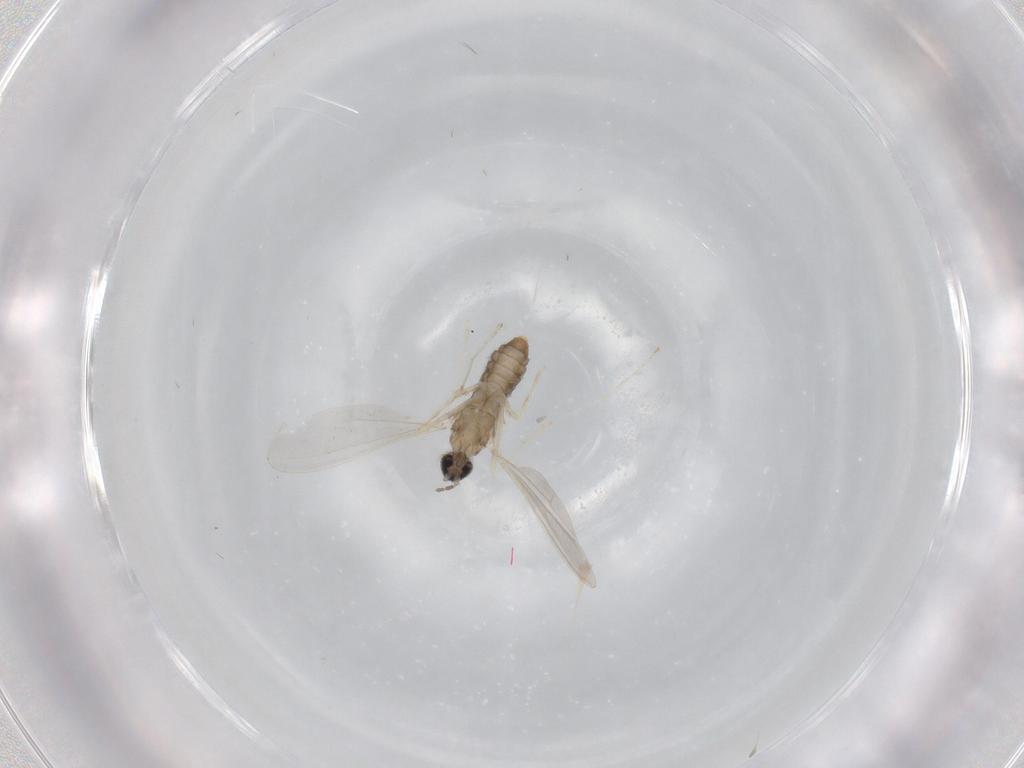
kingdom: Animalia
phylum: Arthropoda
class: Insecta
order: Diptera
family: Cecidomyiidae
